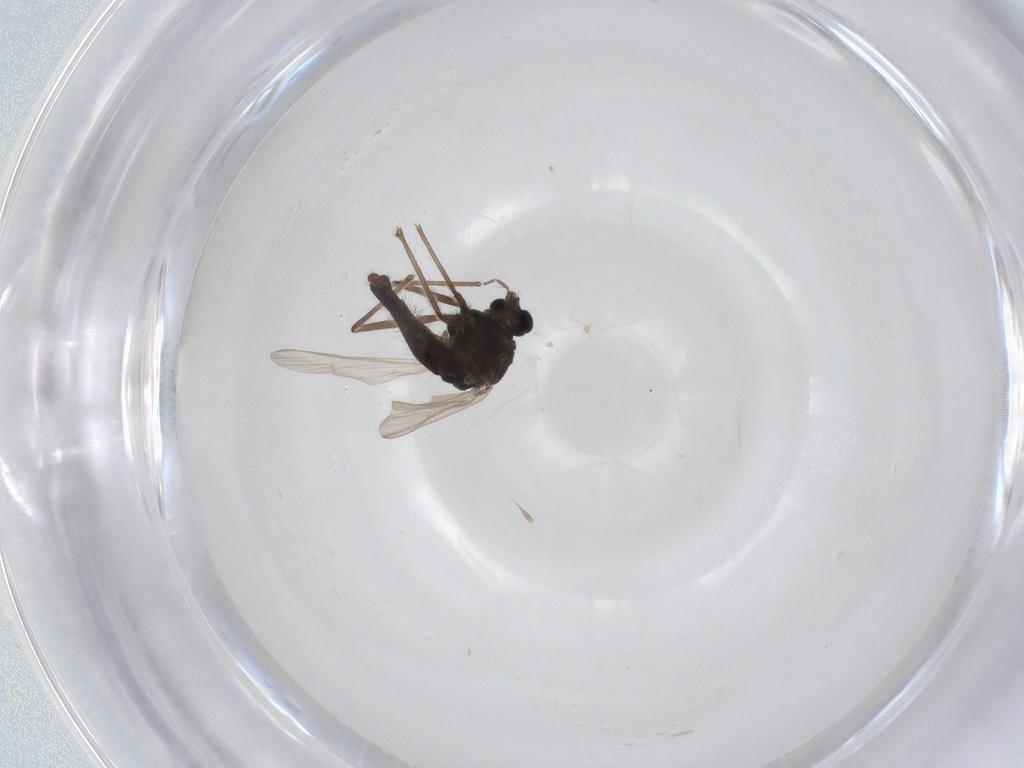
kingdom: Animalia
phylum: Arthropoda
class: Insecta
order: Diptera
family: Chironomidae
